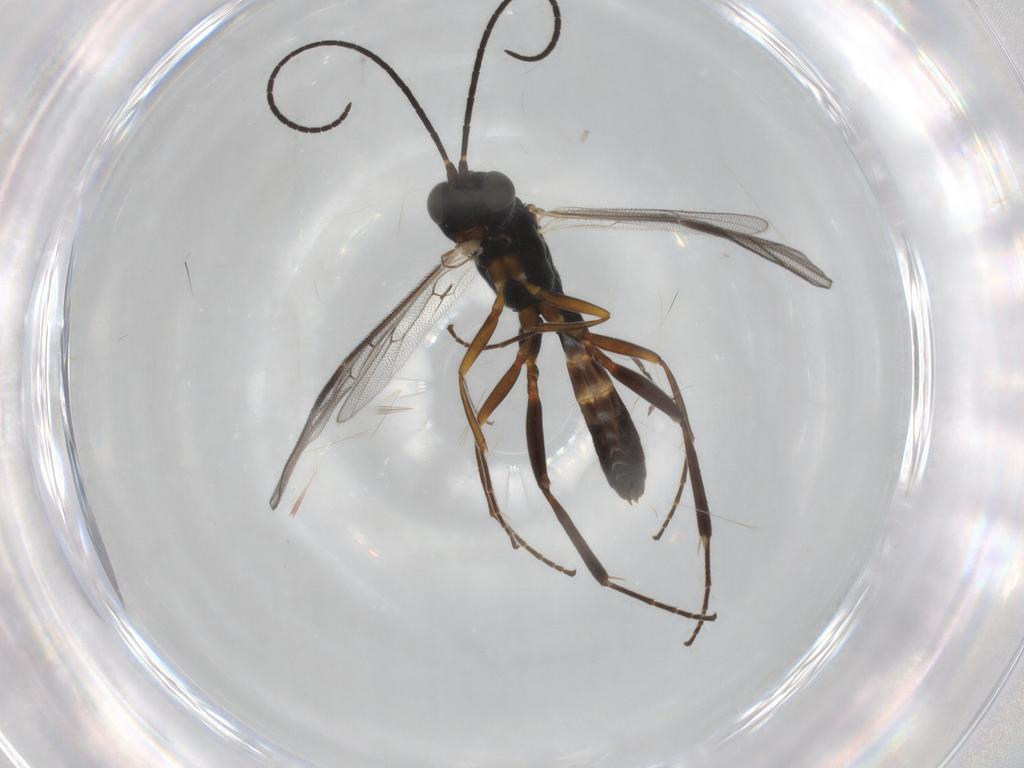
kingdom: Animalia
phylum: Arthropoda
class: Insecta
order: Hymenoptera
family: Ichneumonidae
